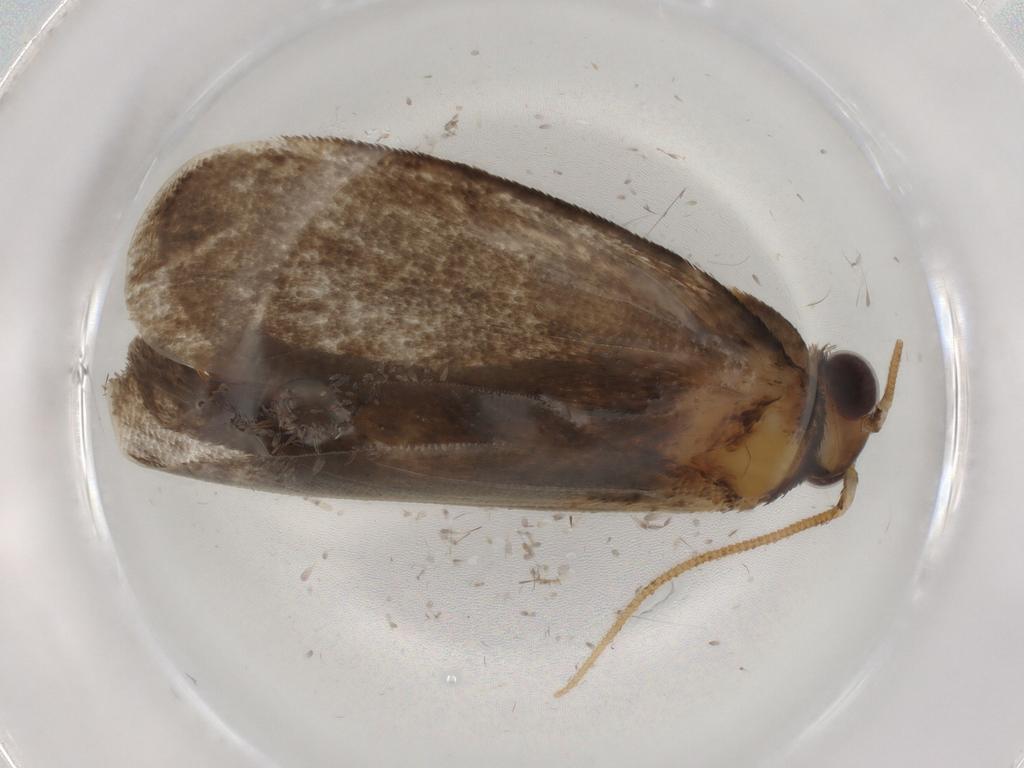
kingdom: Animalia
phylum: Arthropoda
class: Insecta
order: Lepidoptera
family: Tineidae
